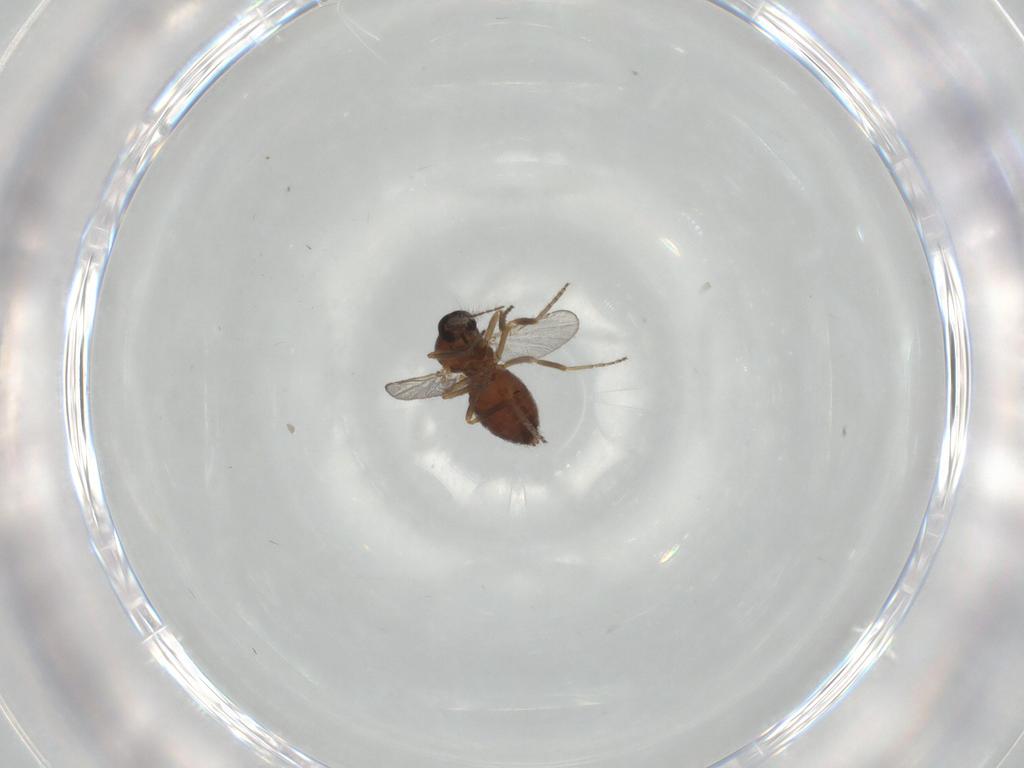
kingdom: Animalia
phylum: Arthropoda
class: Insecta
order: Diptera
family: Ceratopogonidae
